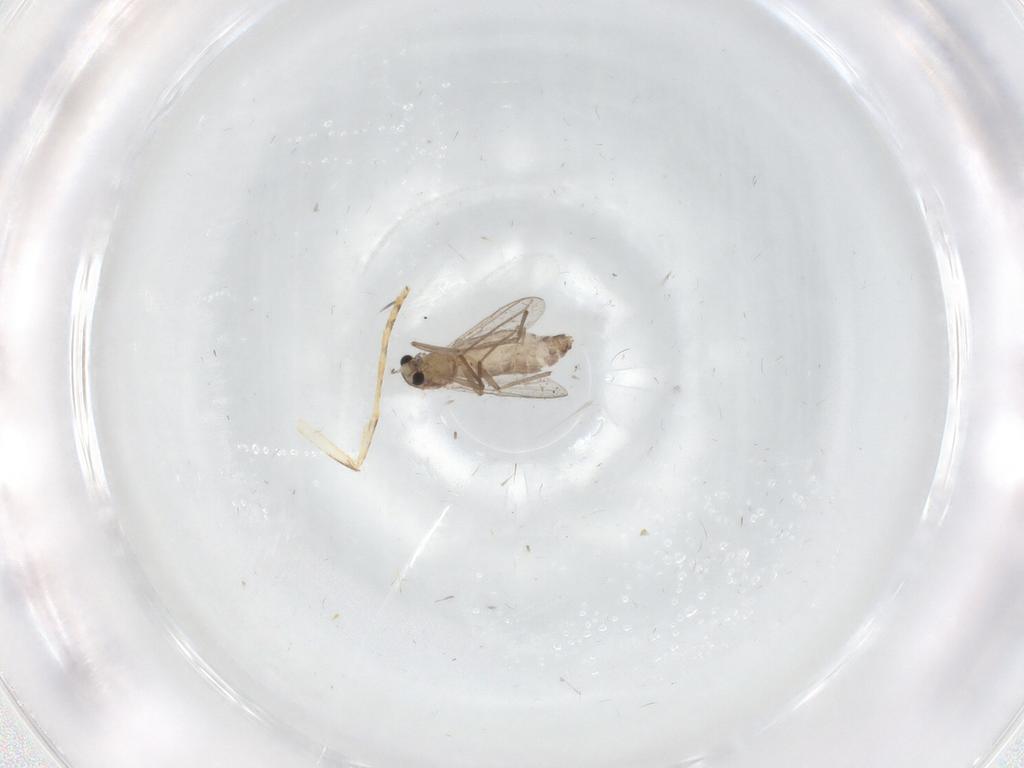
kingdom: Animalia
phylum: Arthropoda
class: Insecta
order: Diptera
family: Chironomidae
